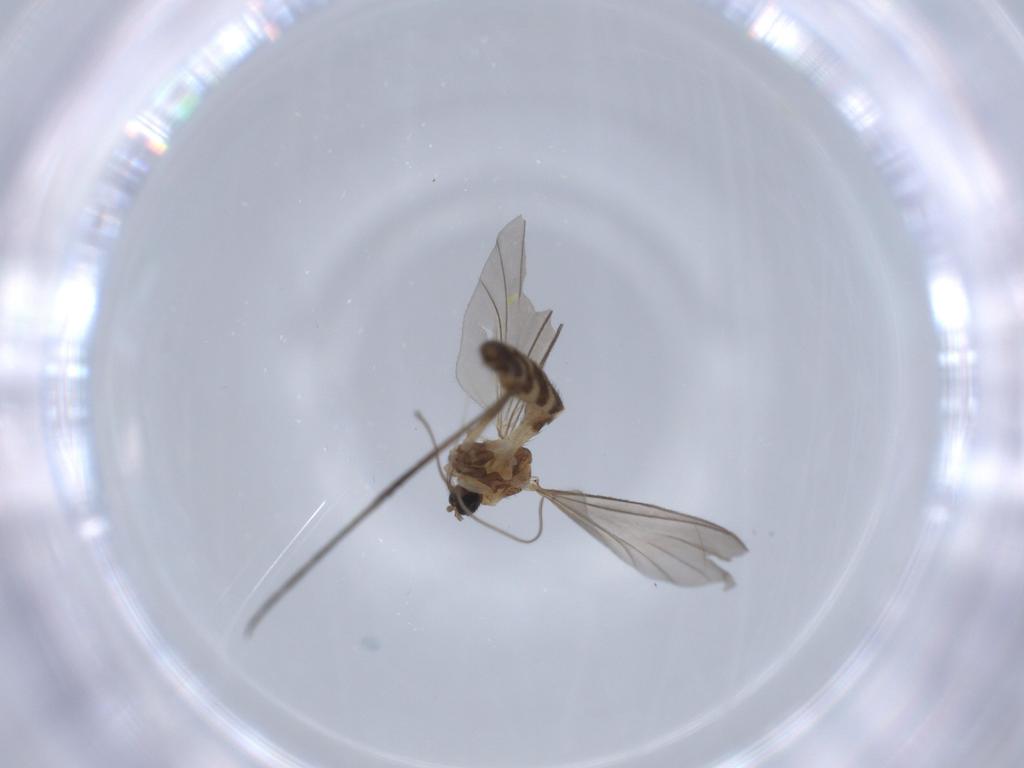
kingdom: Animalia
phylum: Arthropoda
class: Insecta
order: Diptera
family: Keroplatidae
